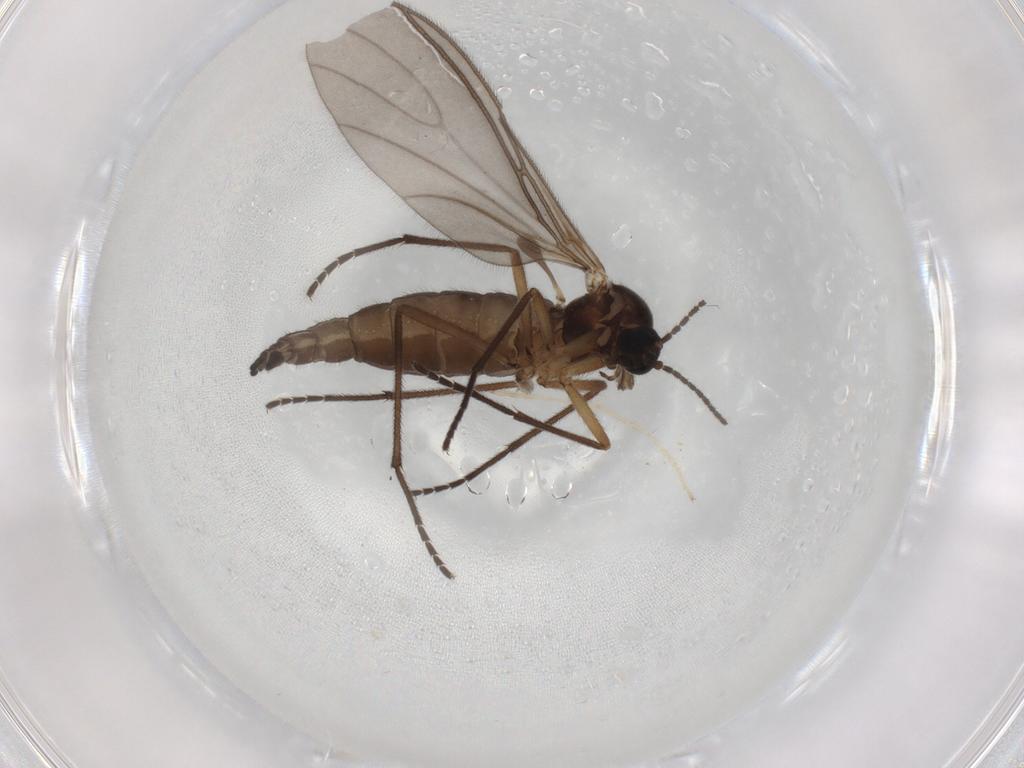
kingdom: Animalia
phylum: Arthropoda
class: Insecta
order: Diptera
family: Sciaridae
